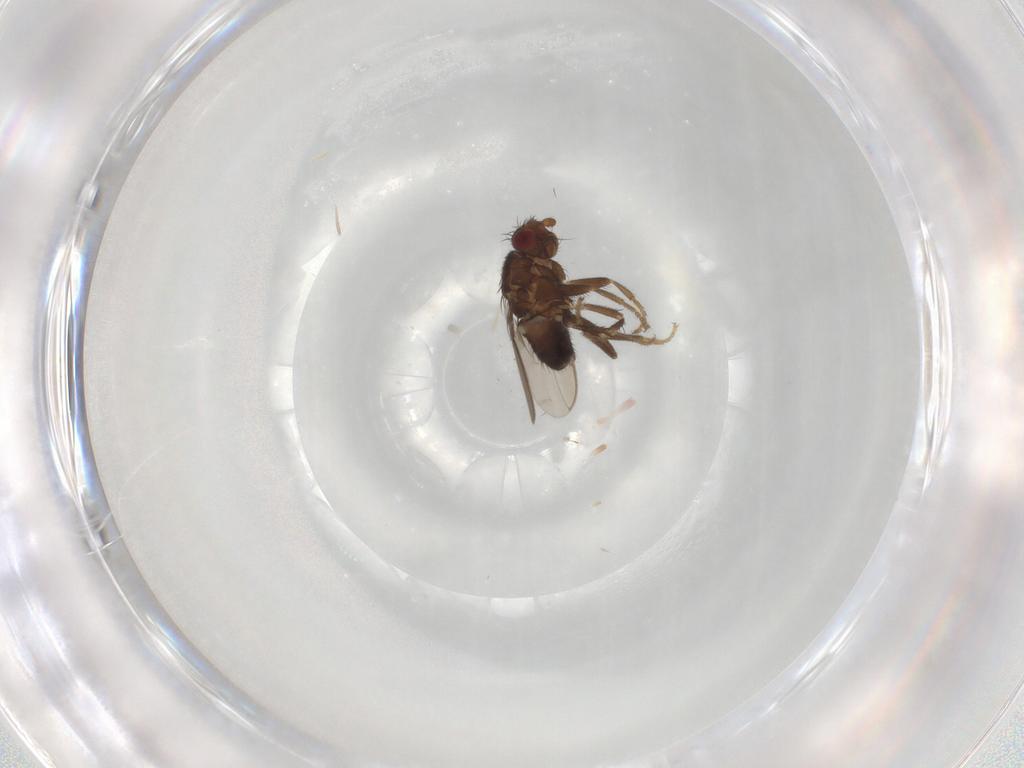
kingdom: Animalia
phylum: Arthropoda
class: Insecta
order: Diptera
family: Sphaeroceridae
